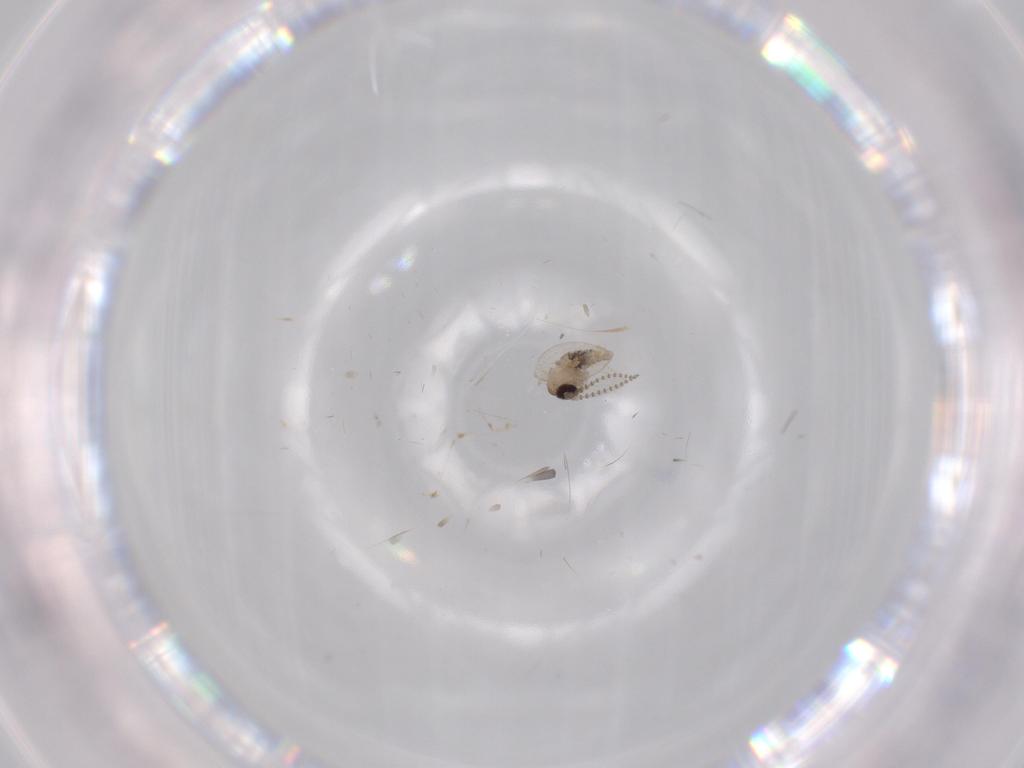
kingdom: Animalia
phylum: Arthropoda
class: Insecta
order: Diptera
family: Psychodidae
